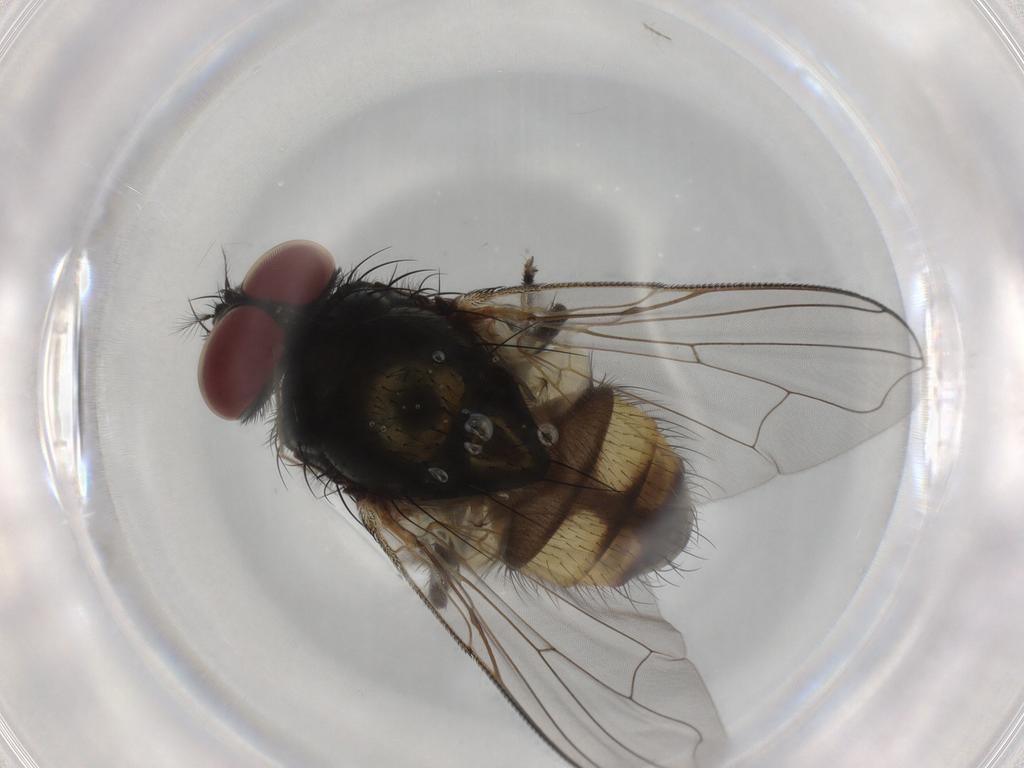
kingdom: Animalia
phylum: Arthropoda
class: Insecta
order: Diptera
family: Muscidae
